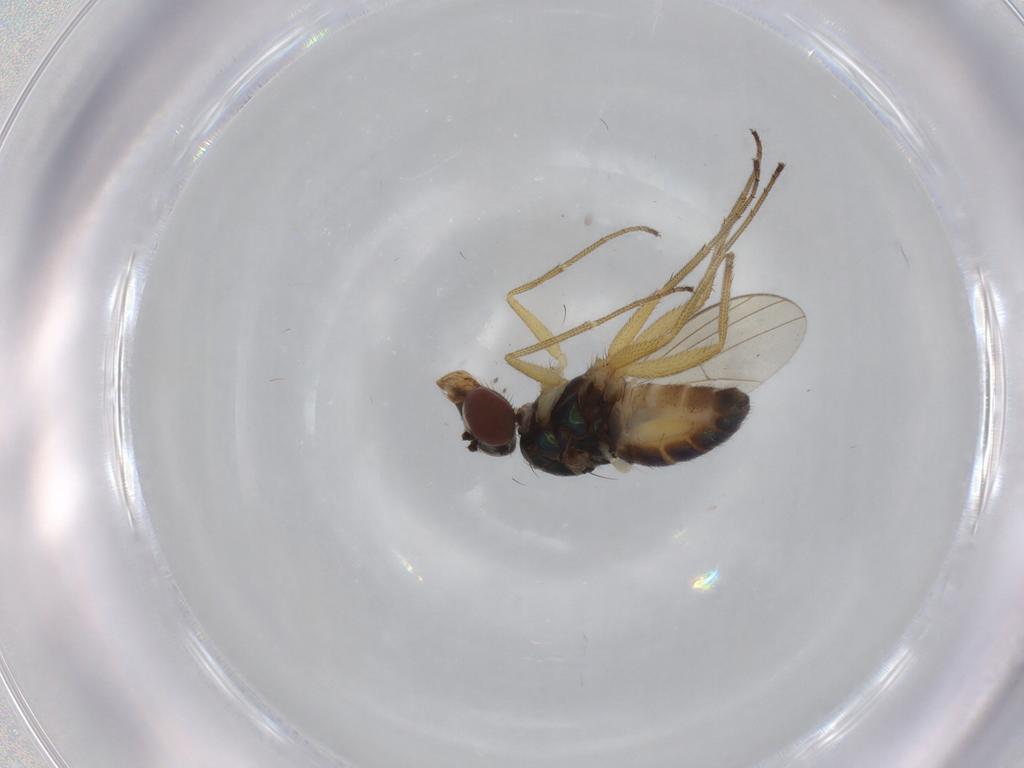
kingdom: Animalia
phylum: Arthropoda
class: Insecta
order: Diptera
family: Dolichopodidae
